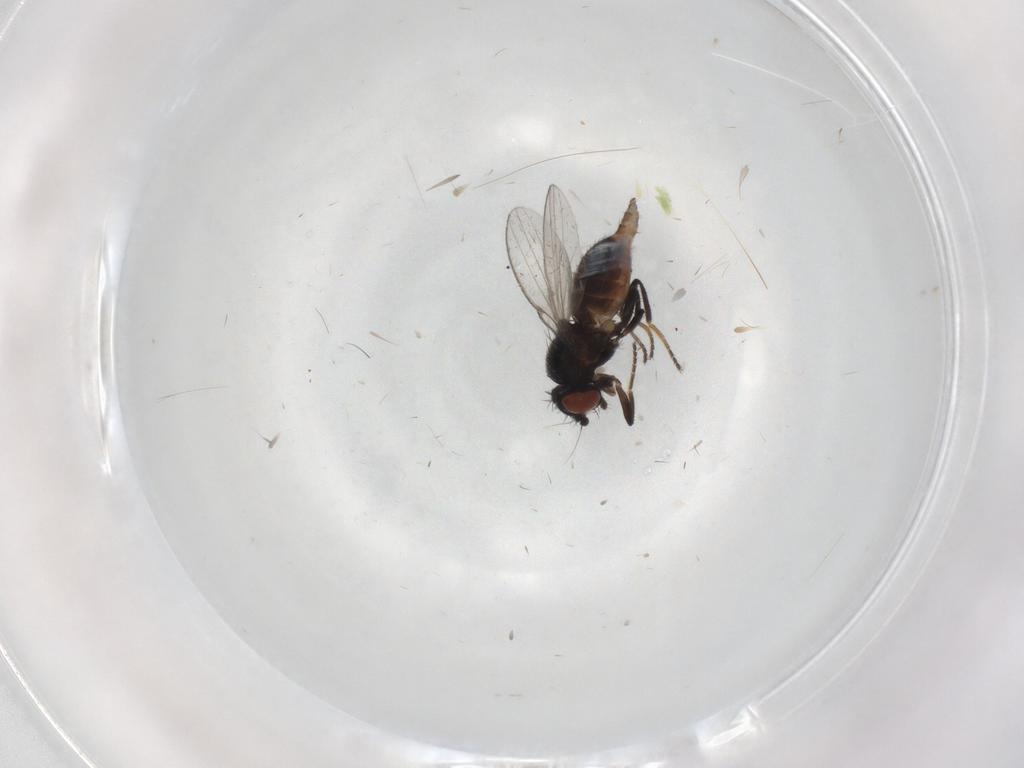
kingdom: Animalia
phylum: Arthropoda
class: Insecta
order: Diptera
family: Milichiidae
